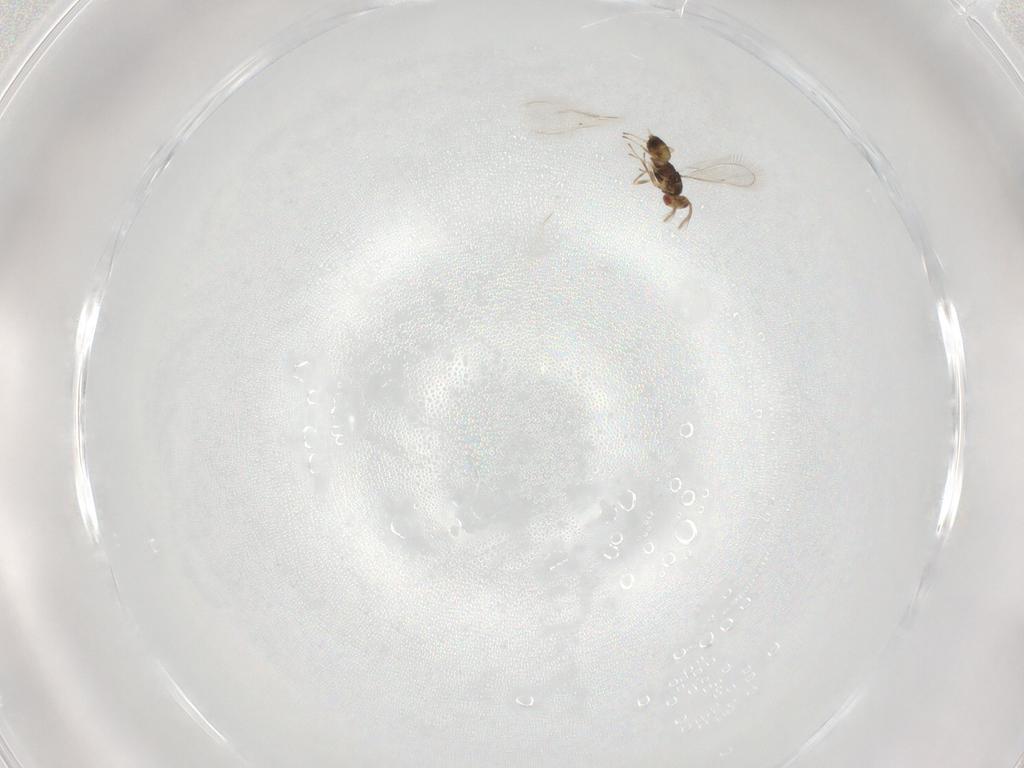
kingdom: Animalia
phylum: Arthropoda
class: Insecta
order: Hymenoptera
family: Eulophidae
